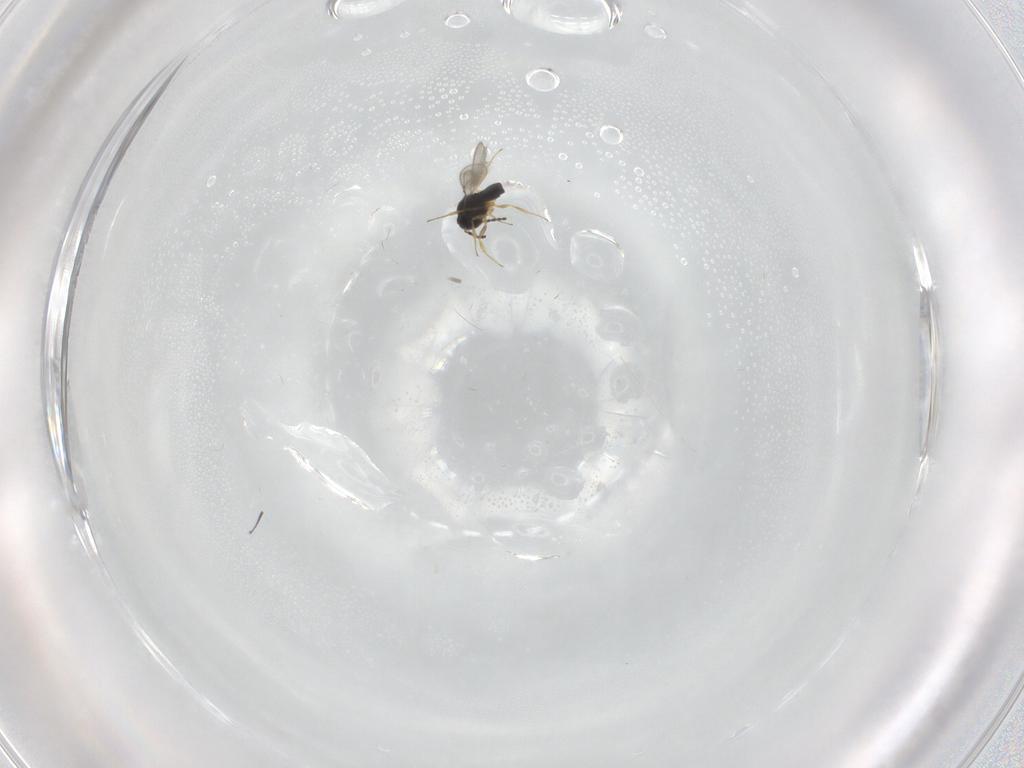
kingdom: Animalia
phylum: Arthropoda
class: Insecta
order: Hymenoptera
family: Scelionidae
